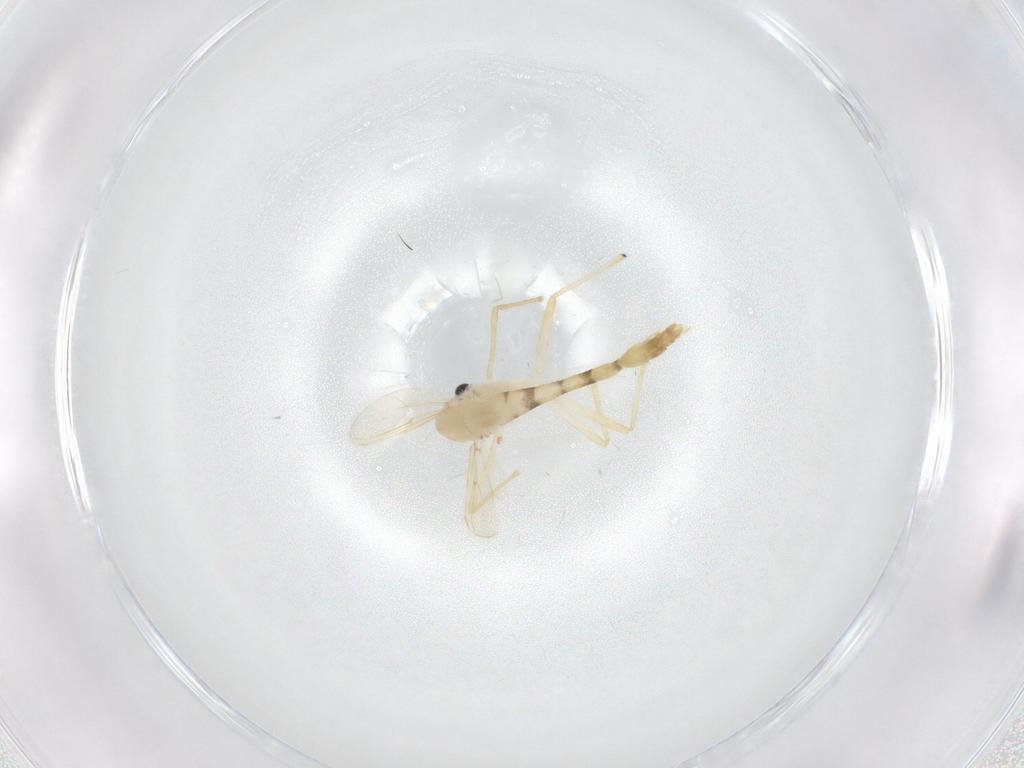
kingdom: Animalia
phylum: Arthropoda
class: Insecta
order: Diptera
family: Chironomidae
